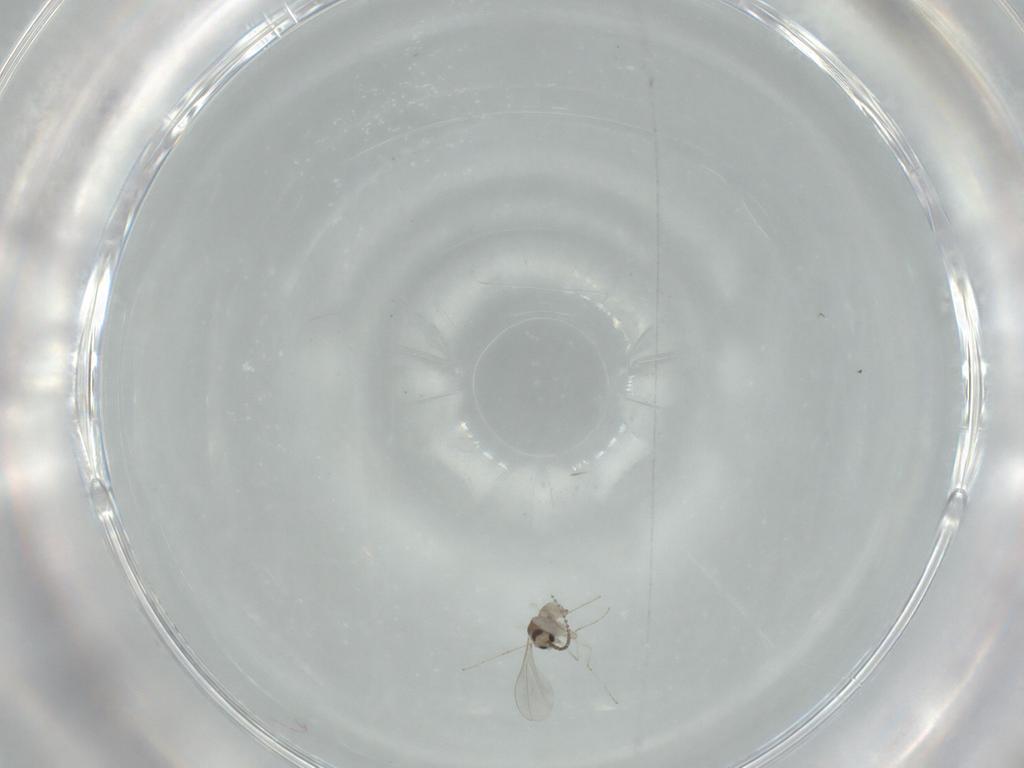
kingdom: Animalia
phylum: Arthropoda
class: Insecta
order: Diptera
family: Cecidomyiidae
